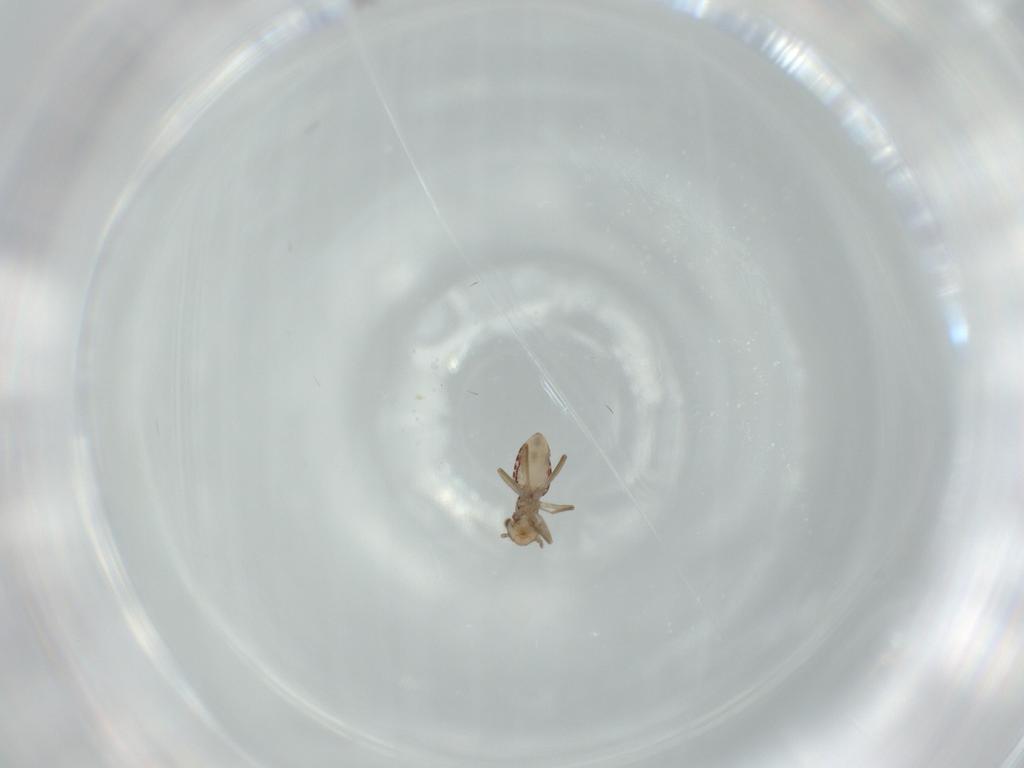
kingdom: Animalia
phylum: Arthropoda
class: Insecta
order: Psocodea
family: Lepidopsocidae
